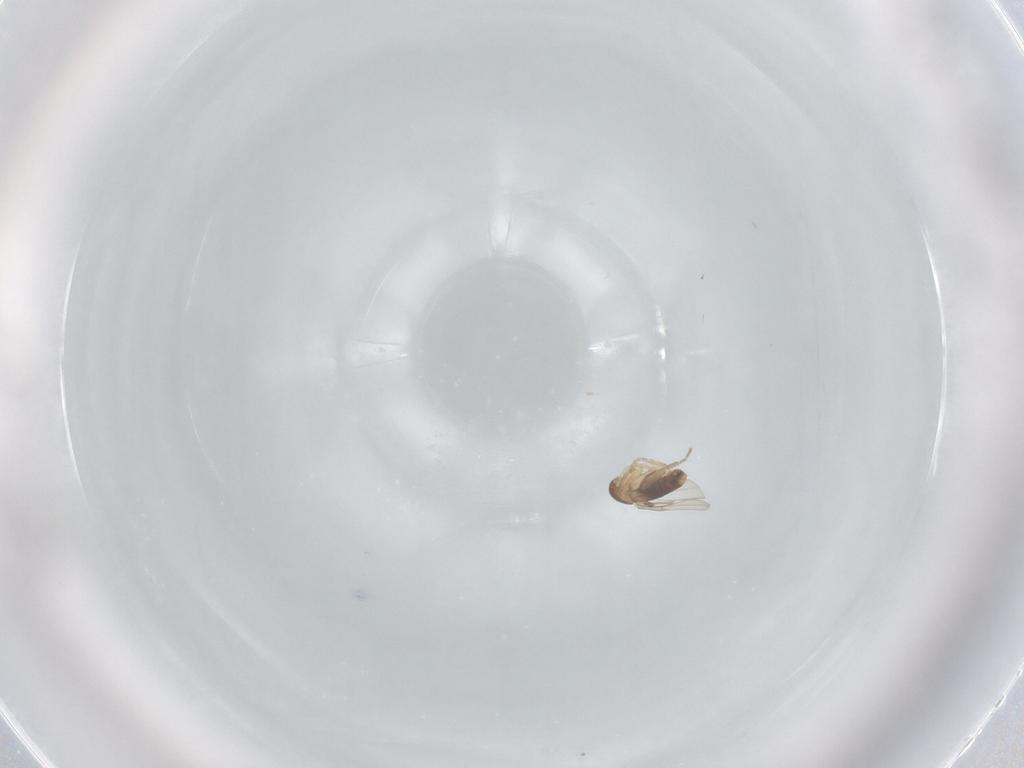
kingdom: Animalia
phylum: Arthropoda
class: Insecta
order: Diptera
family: Phoridae
